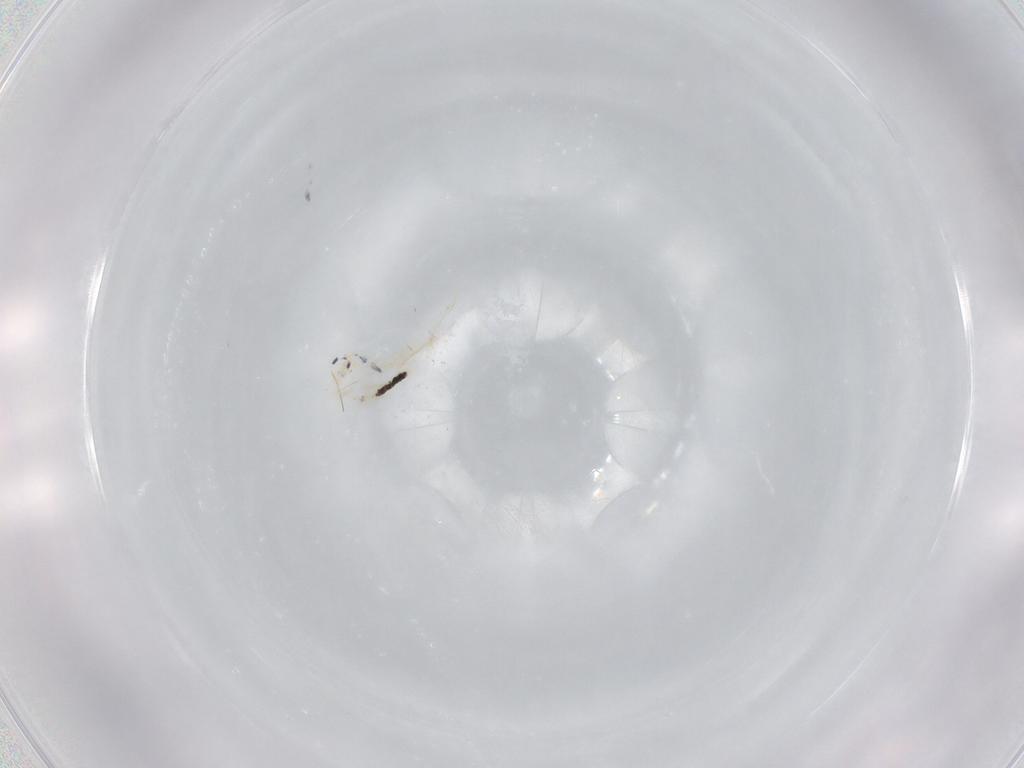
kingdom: Animalia
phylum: Arthropoda
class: Collembola
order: Entomobryomorpha
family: Entomobryidae
